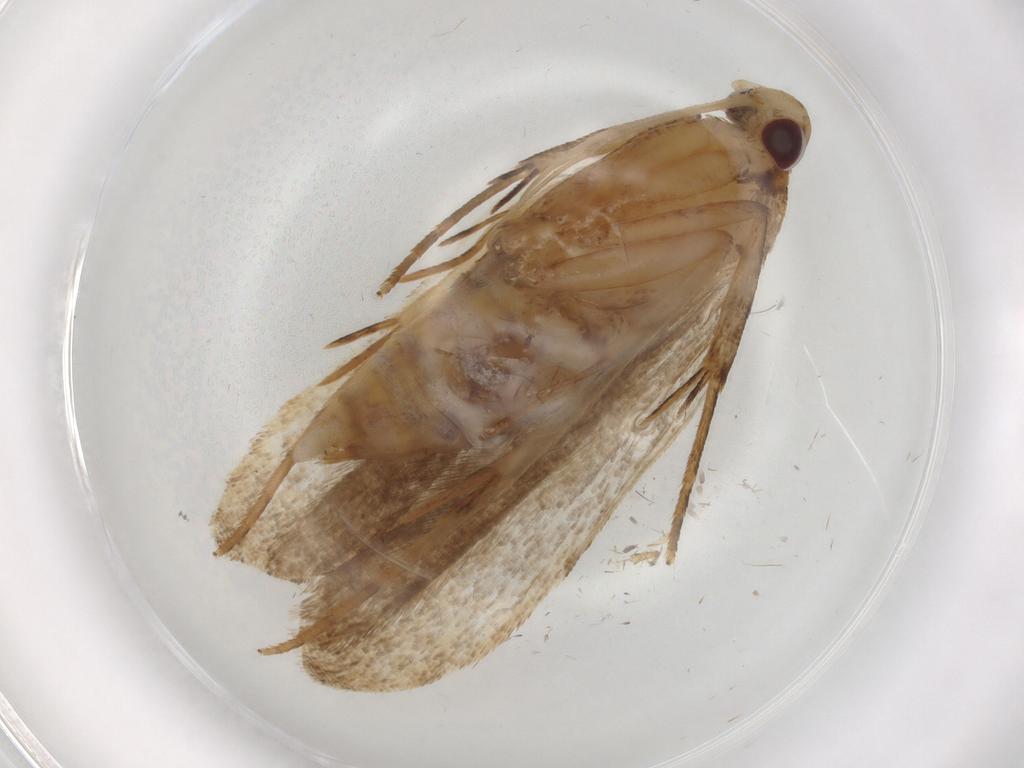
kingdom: Animalia
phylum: Arthropoda
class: Insecta
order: Lepidoptera
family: Gelechiidae
